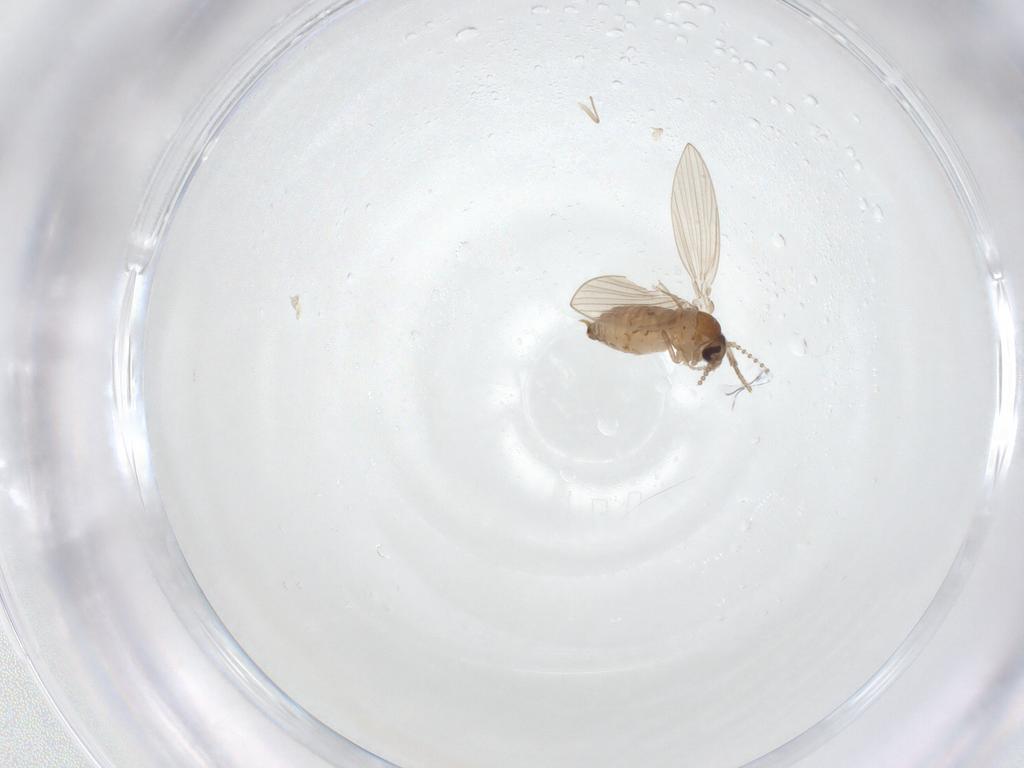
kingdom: Animalia
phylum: Arthropoda
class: Insecta
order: Diptera
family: Psychodidae
